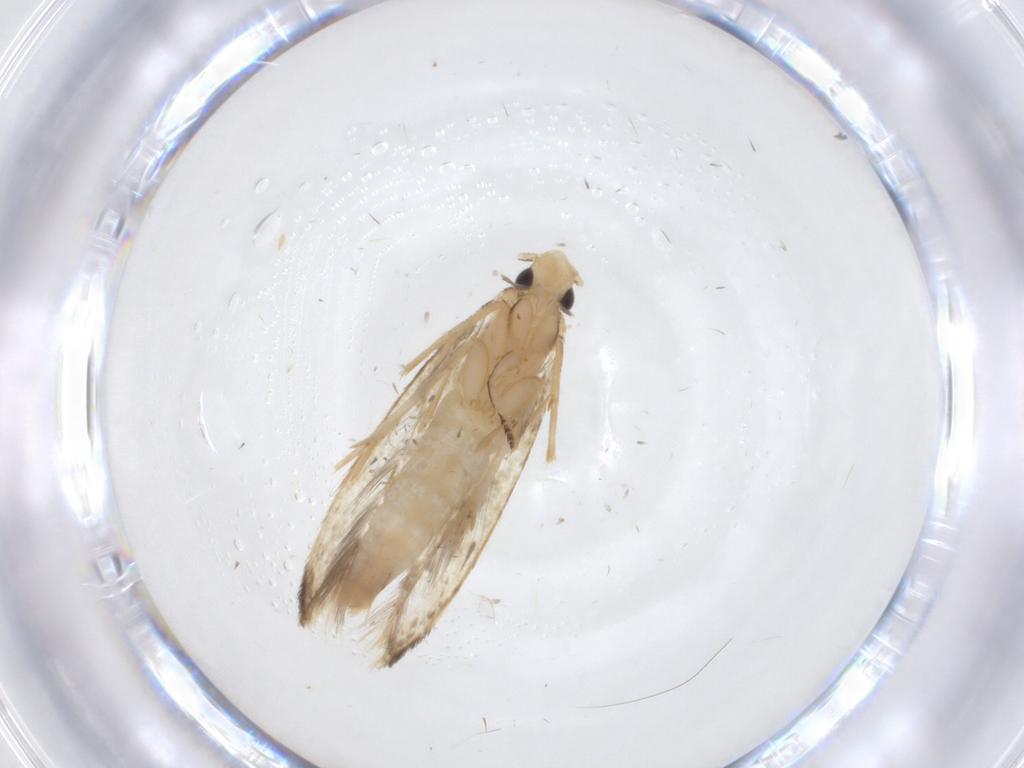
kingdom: Animalia
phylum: Arthropoda
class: Insecta
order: Lepidoptera
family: Tineidae
